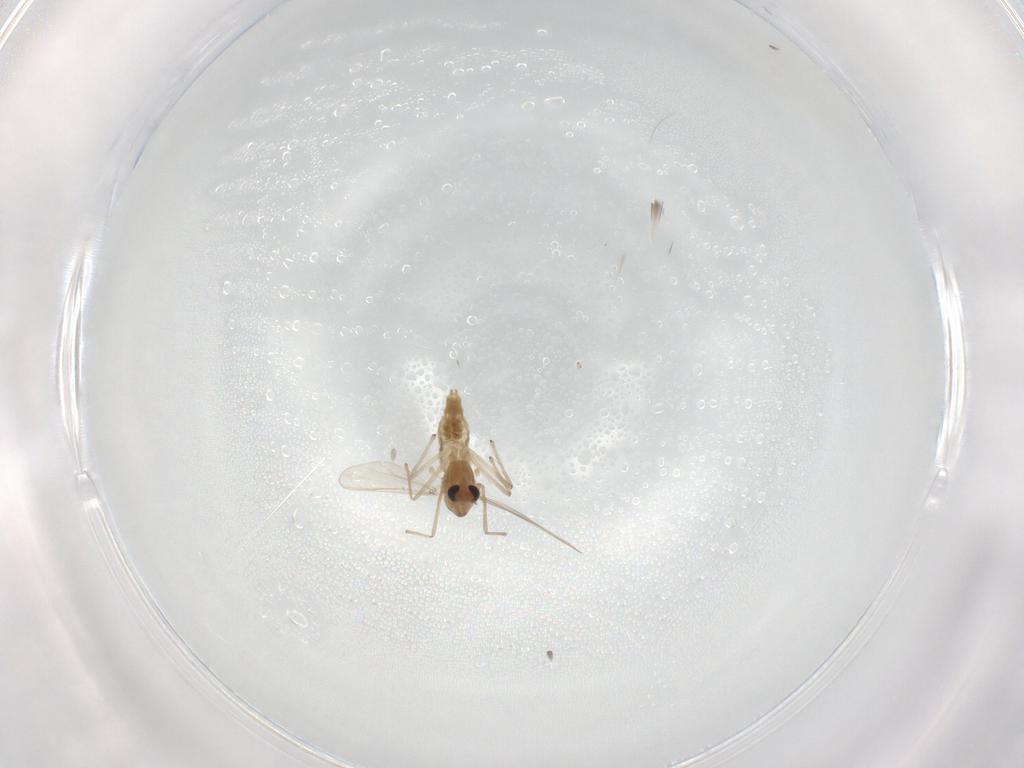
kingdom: Animalia
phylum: Arthropoda
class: Insecta
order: Diptera
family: Chironomidae
